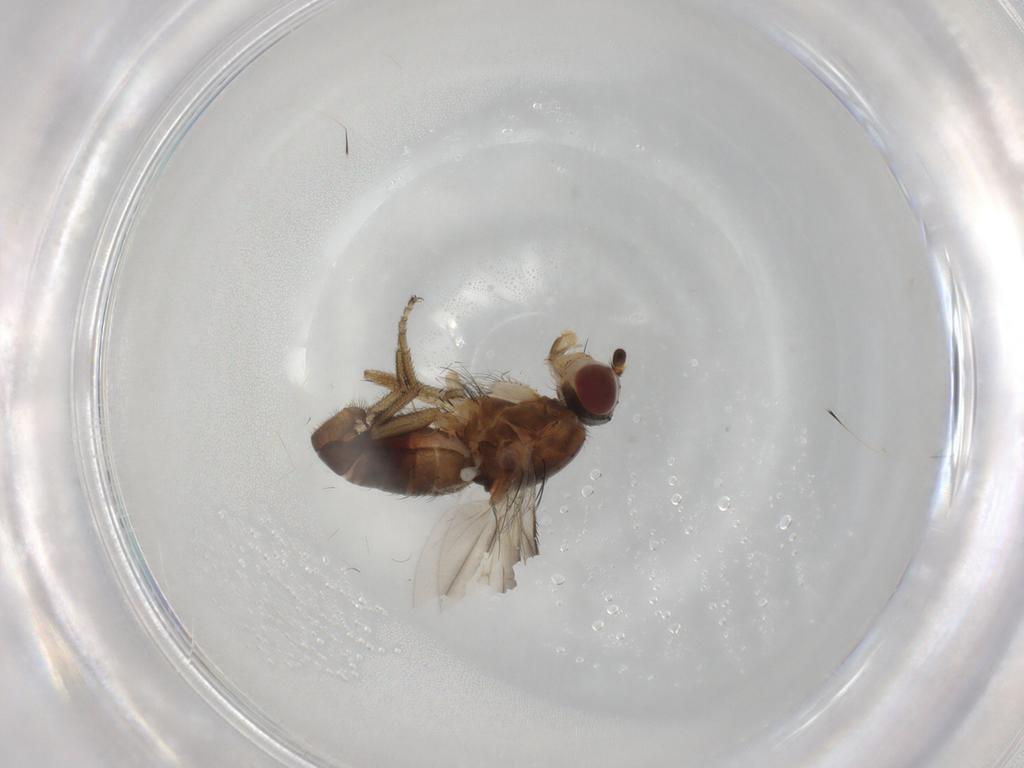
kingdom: Animalia
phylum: Arthropoda
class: Insecta
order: Diptera
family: Heleomyzidae
